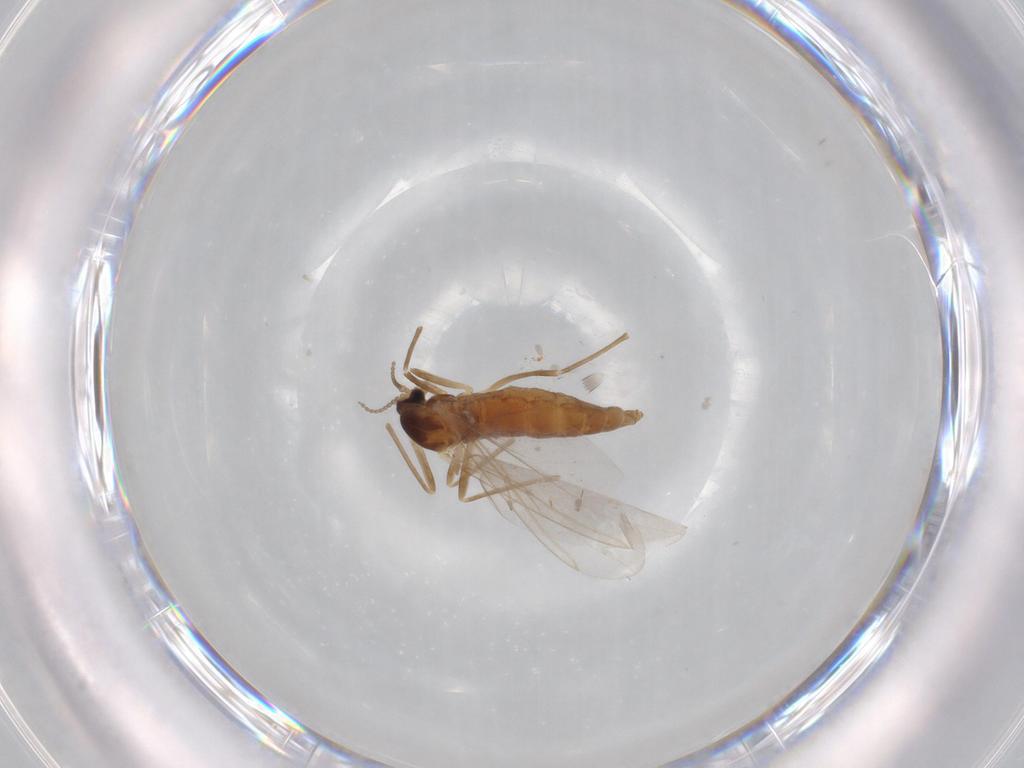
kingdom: Animalia
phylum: Arthropoda
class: Insecta
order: Diptera
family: Cecidomyiidae
